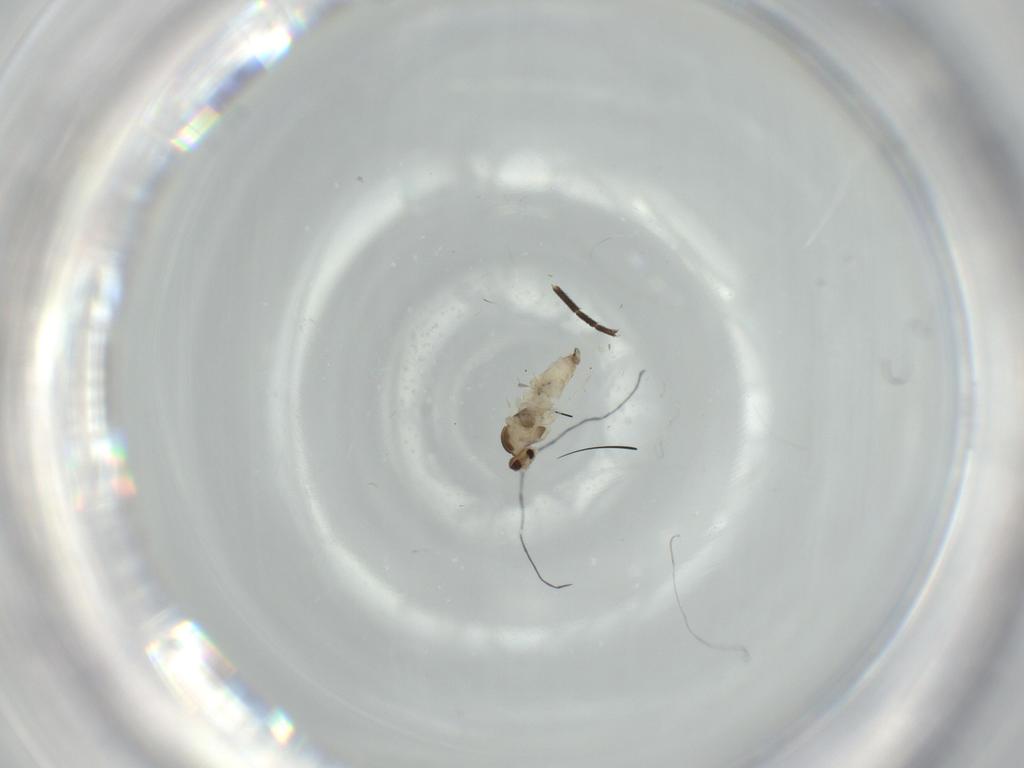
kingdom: Animalia
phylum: Arthropoda
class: Insecta
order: Diptera
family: Cecidomyiidae
